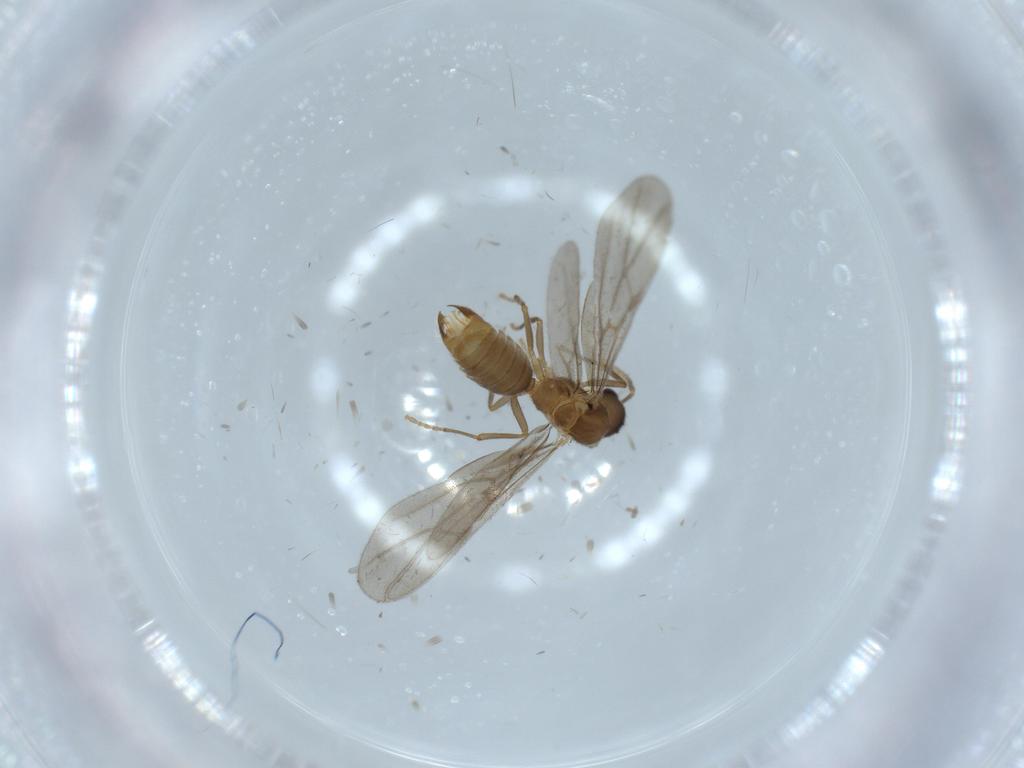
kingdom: Animalia
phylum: Arthropoda
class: Insecta
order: Hymenoptera
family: Formicidae
